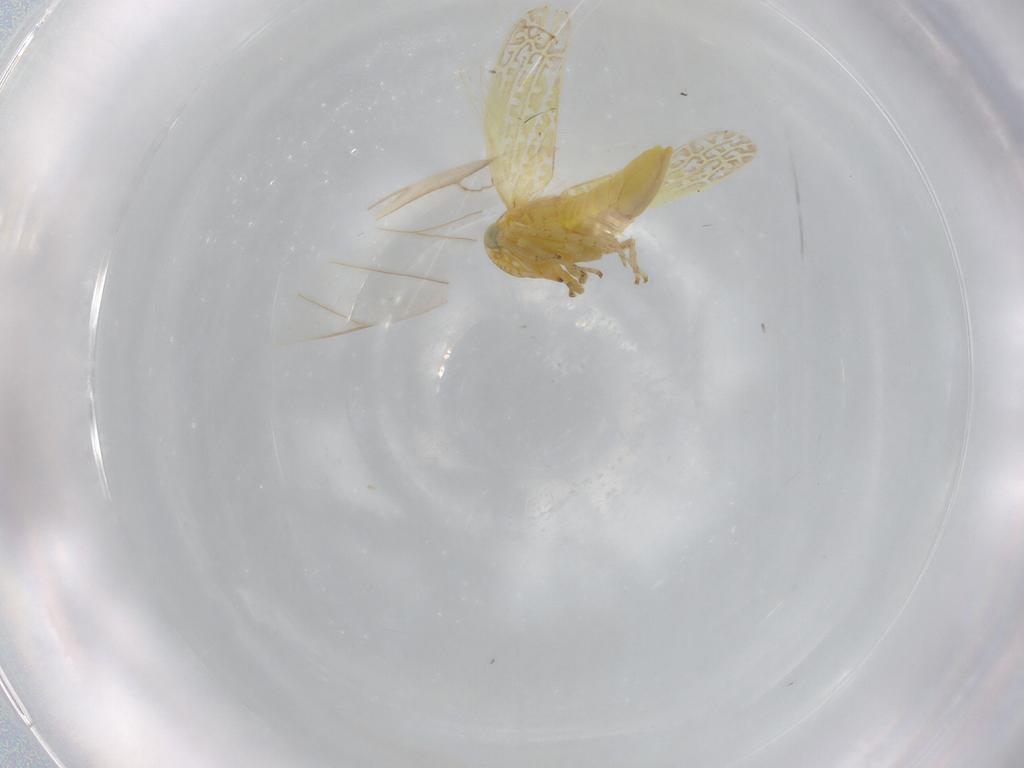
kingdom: Animalia
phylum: Arthropoda
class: Insecta
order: Hemiptera
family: Cicadellidae
